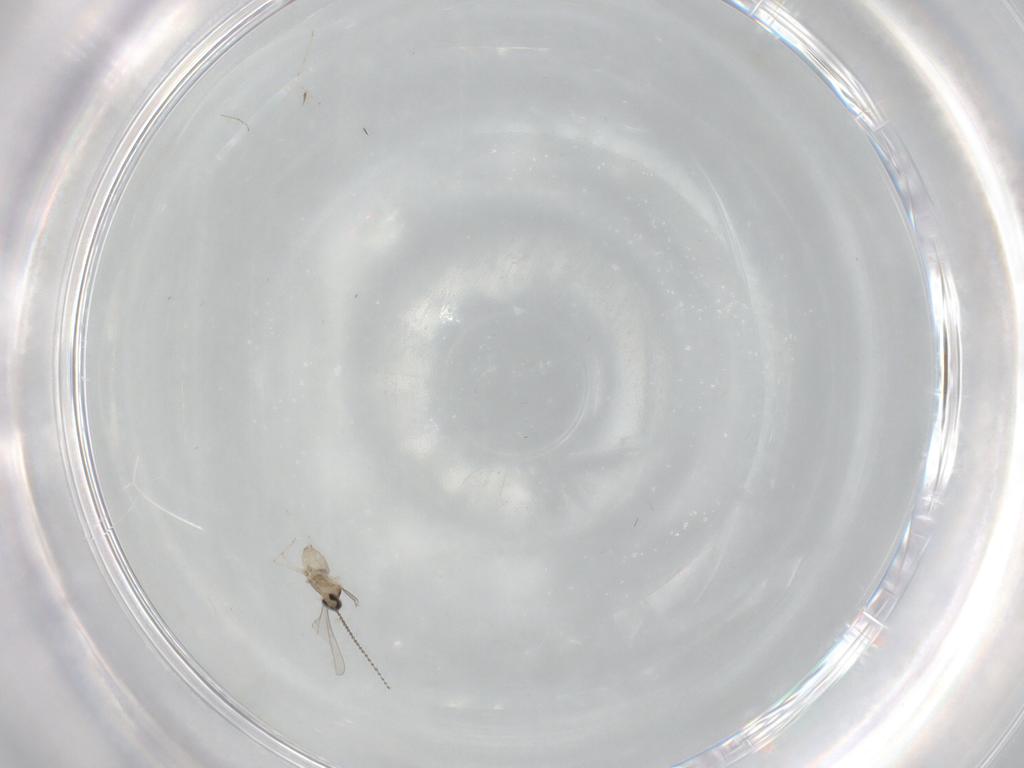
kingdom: Animalia
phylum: Arthropoda
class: Insecta
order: Diptera
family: Cecidomyiidae
